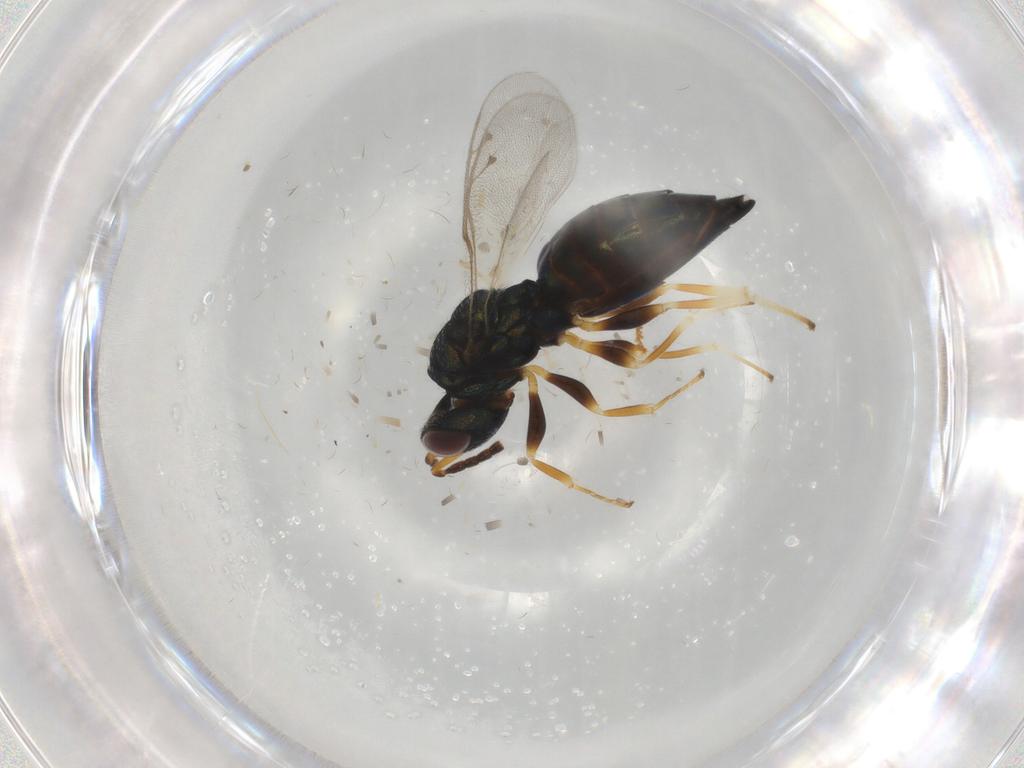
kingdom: Animalia
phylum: Arthropoda
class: Insecta
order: Hymenoptera
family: Pteromalidae
